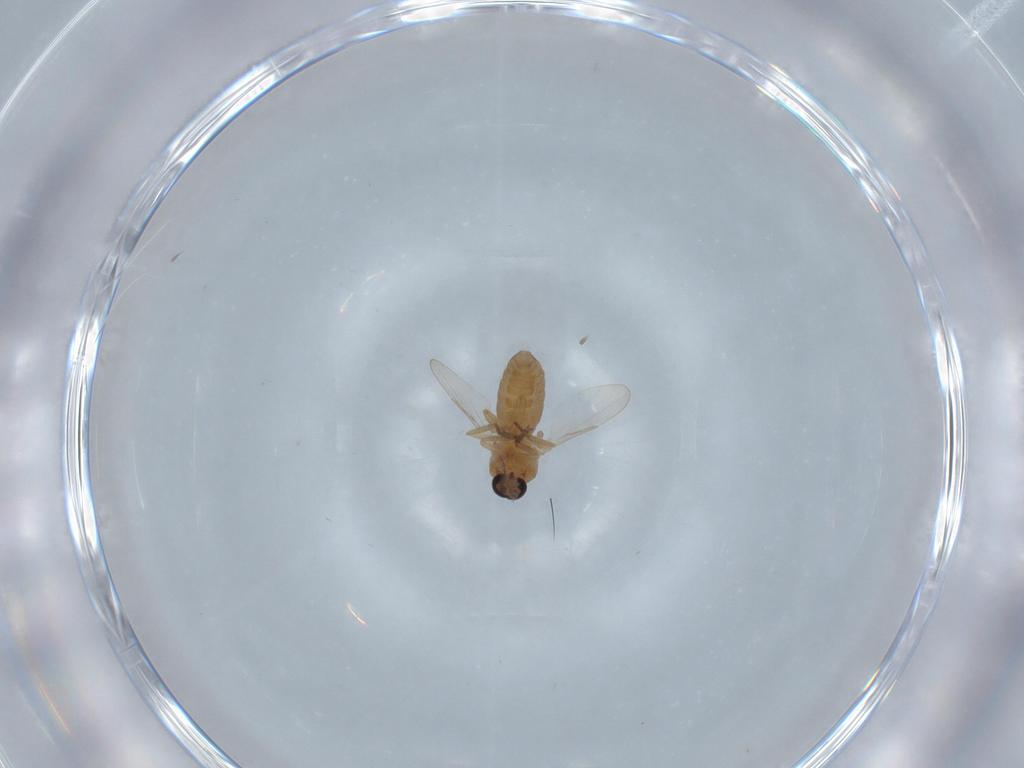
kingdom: Animalia
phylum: Arthropoda
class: Insecta
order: Diptera
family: Ceratopogonidae
